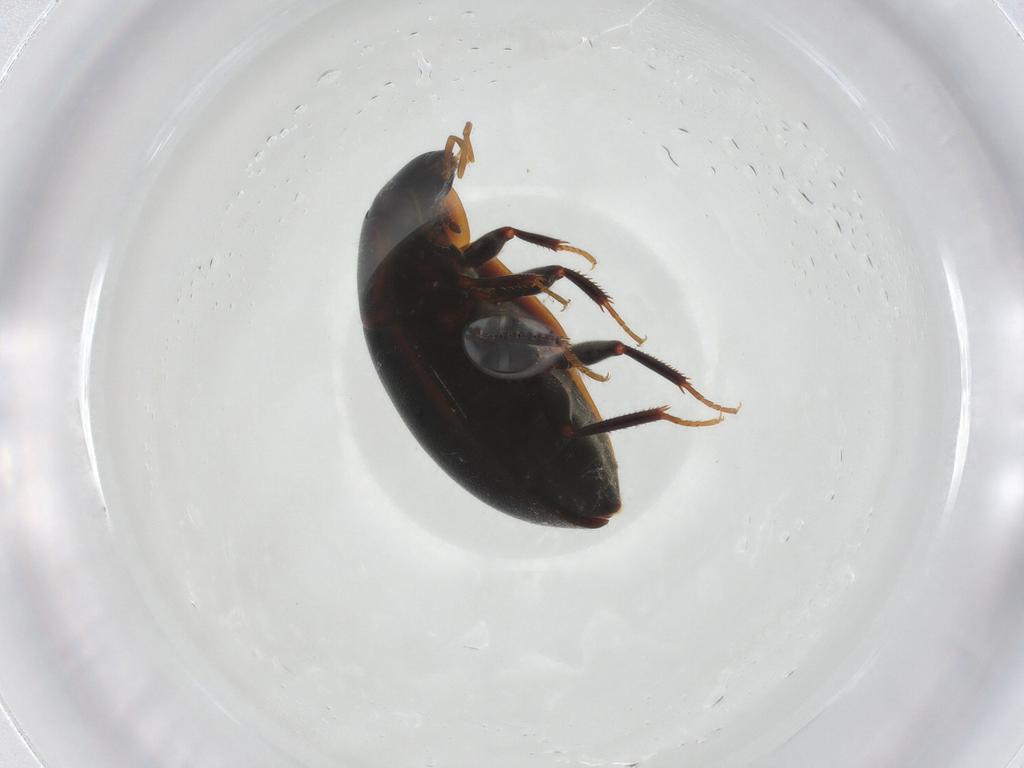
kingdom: Animalia
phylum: Arthropoda
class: Insecta
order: Coleoptera
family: Hydrophilidae
